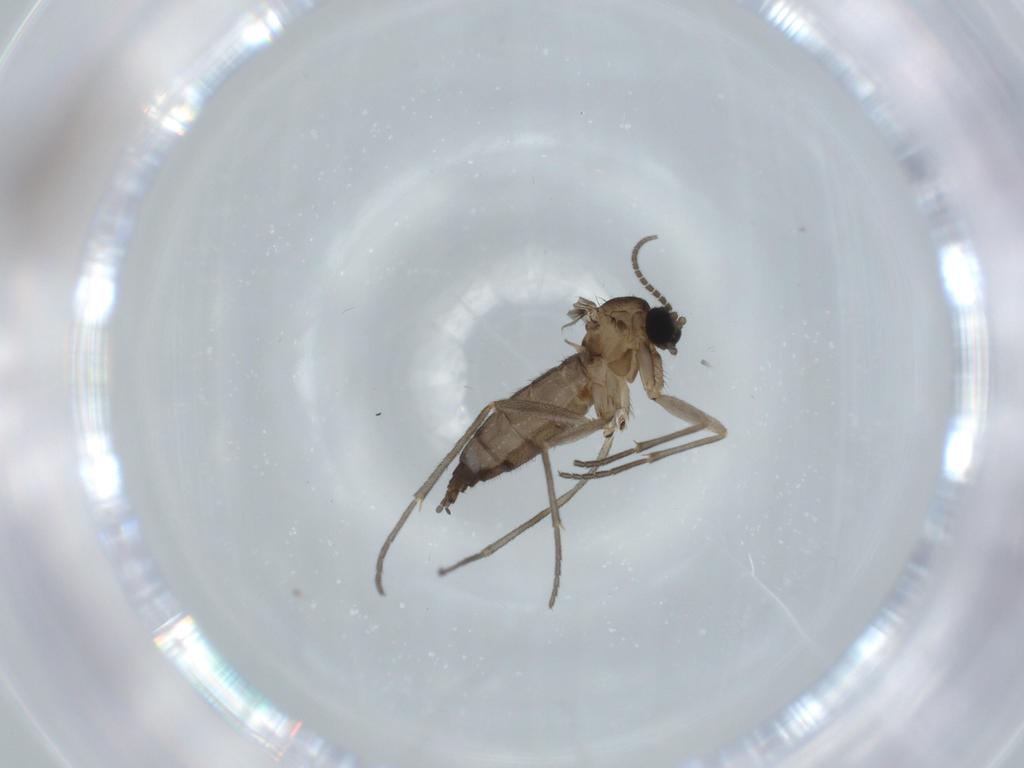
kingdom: Animalia
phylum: Arthropoda
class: Insecta
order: Diptera
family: Sciaridae
